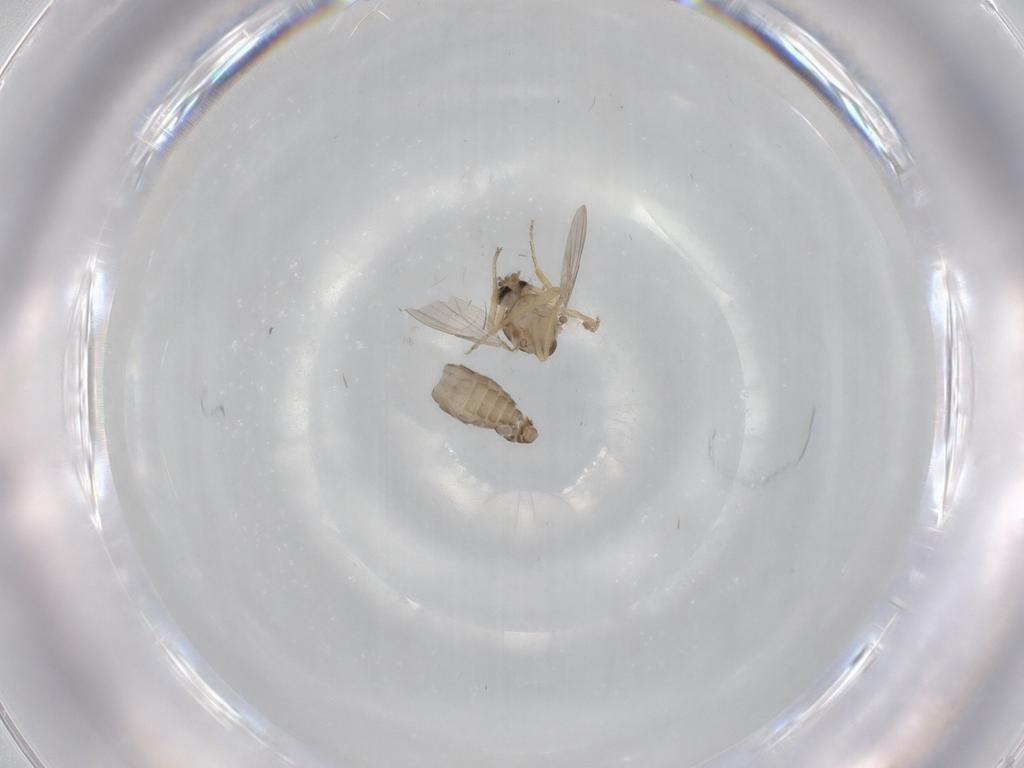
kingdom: Animalia
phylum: Arthropoda
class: Insecta
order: Diptera
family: Ceratopogonidae
